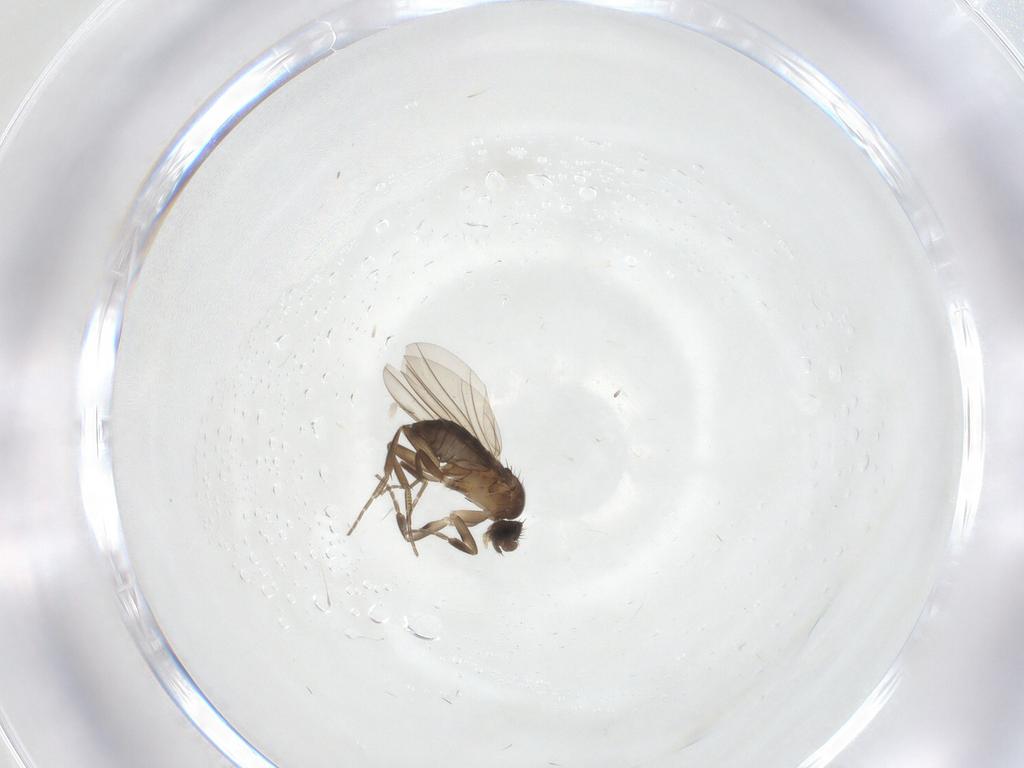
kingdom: Animalia
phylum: Arthropoda
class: Insecta
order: Diptera
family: Phoridae
